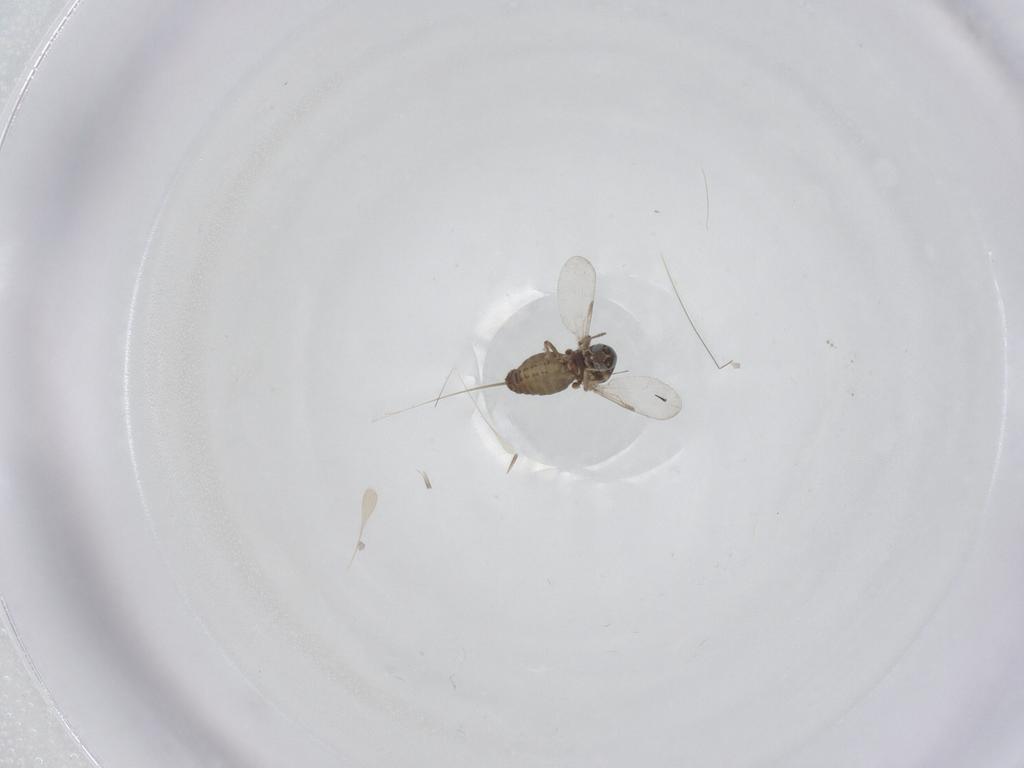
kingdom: Animalia
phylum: Arthropoda
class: Insecta
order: Diptera
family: Ceratopogonidae
